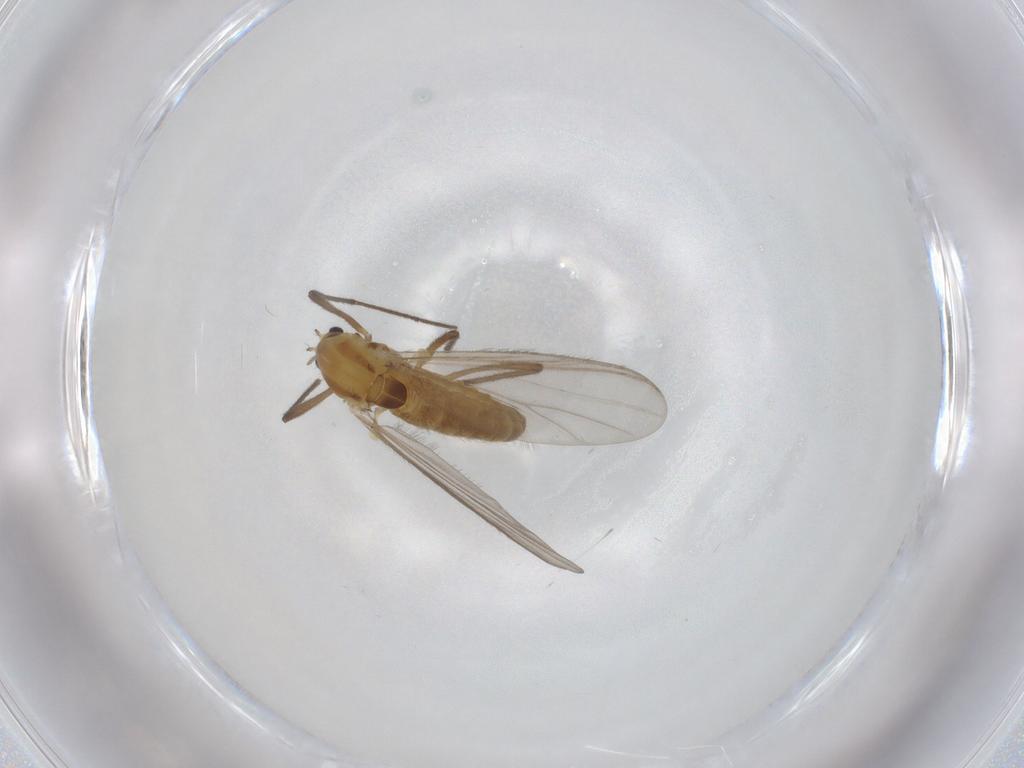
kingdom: Animalia
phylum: Arthropoda
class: Insecta
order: Diptera
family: Chironomidae
